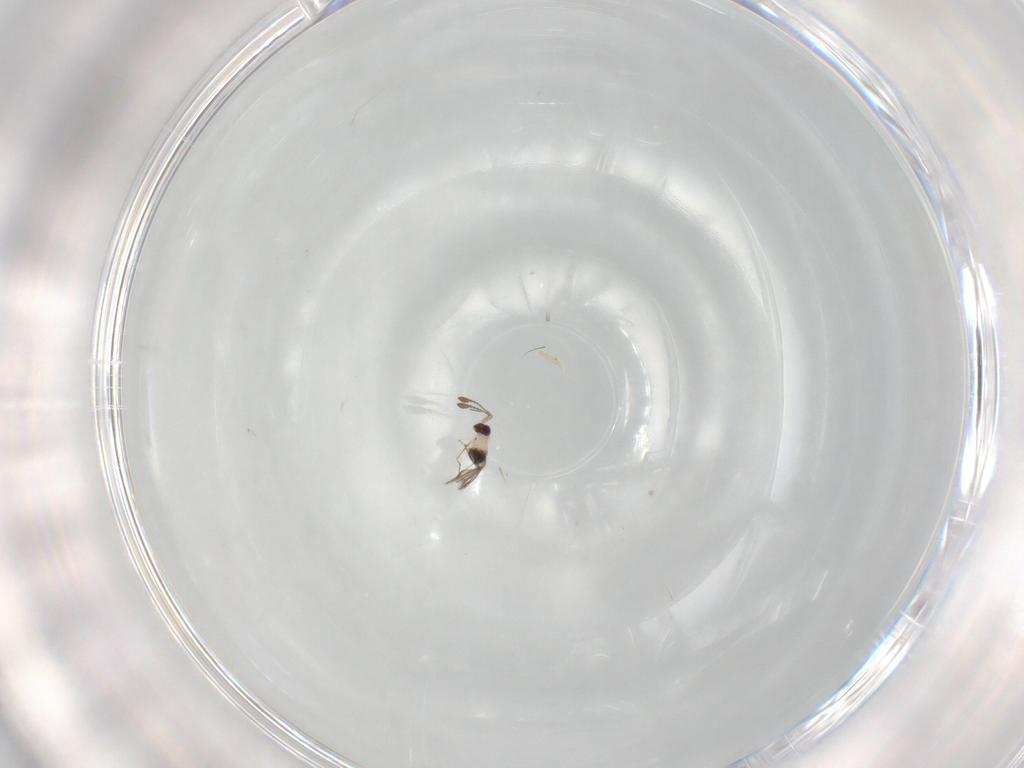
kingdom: Animalia
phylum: Arthropoda
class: Insecta
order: Hymenoptera
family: Mymaridae
